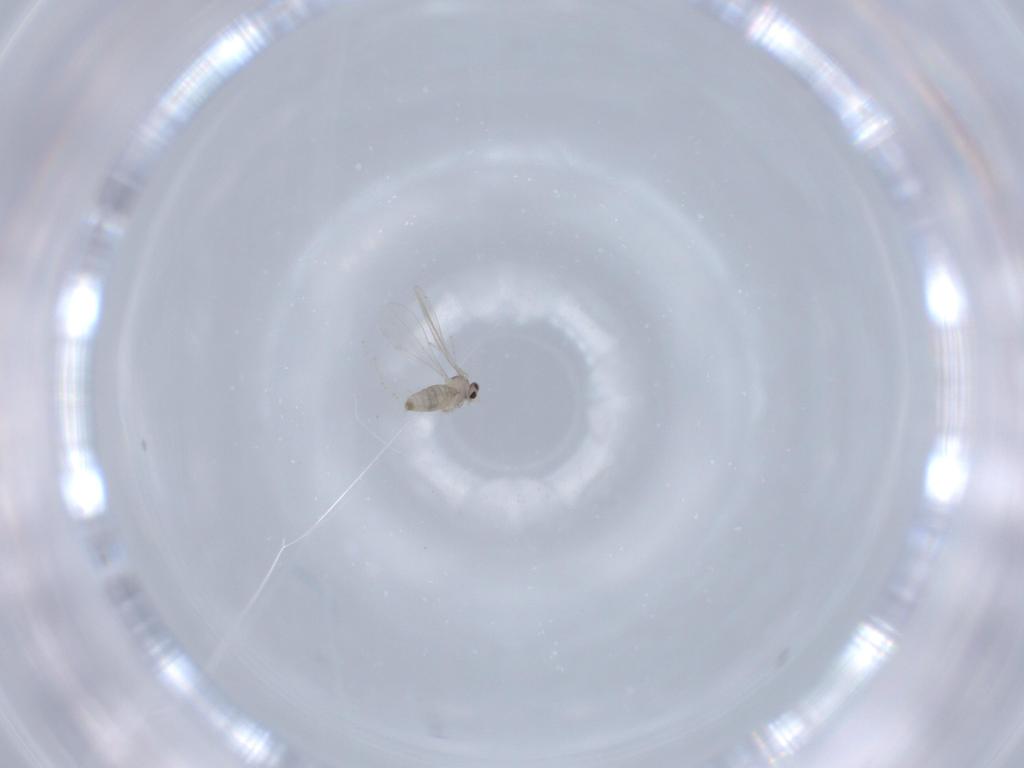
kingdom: Animalia
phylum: Arthropoda
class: Insecta
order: Diptera
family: Cecidomyiidae
